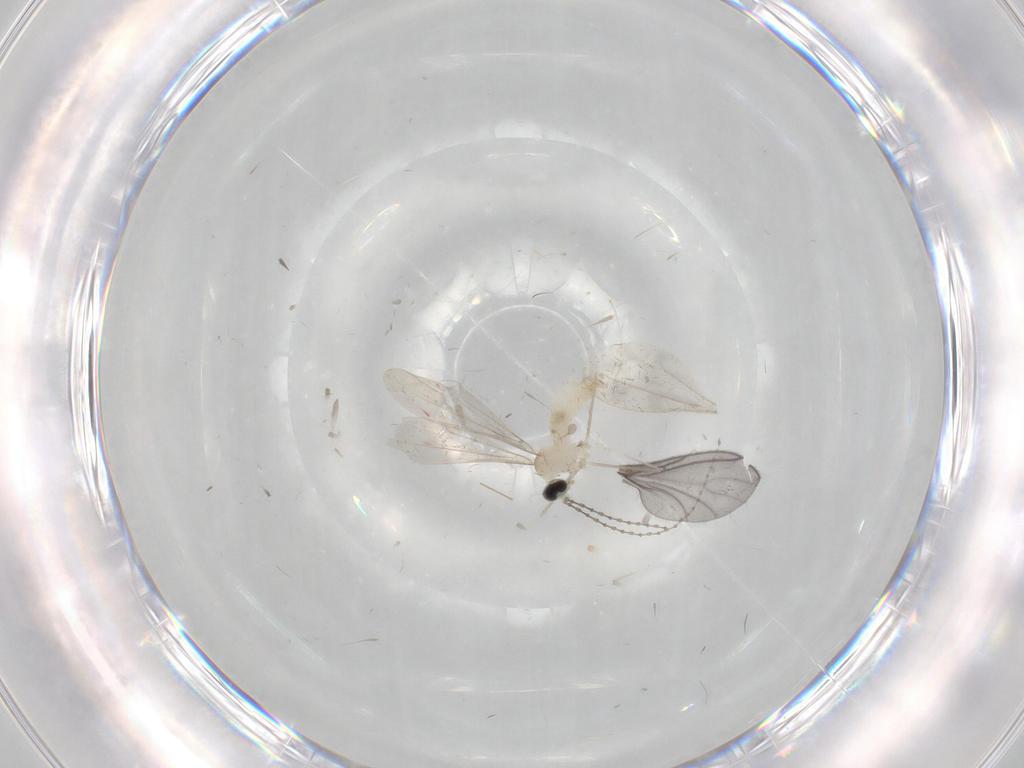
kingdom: Animalia
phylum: Arthropoda
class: Insecta
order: Diptera
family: Cecidomyiidae
